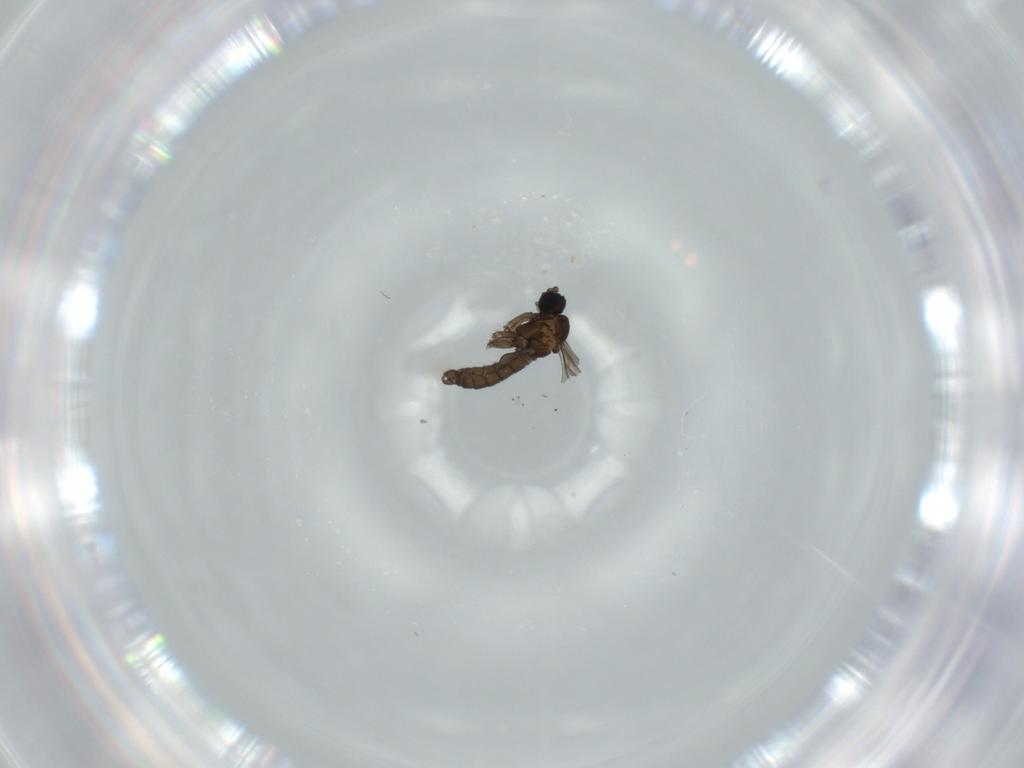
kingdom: Animalia
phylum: Arthropoda
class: Insecta
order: Diptera
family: Sciaridae
